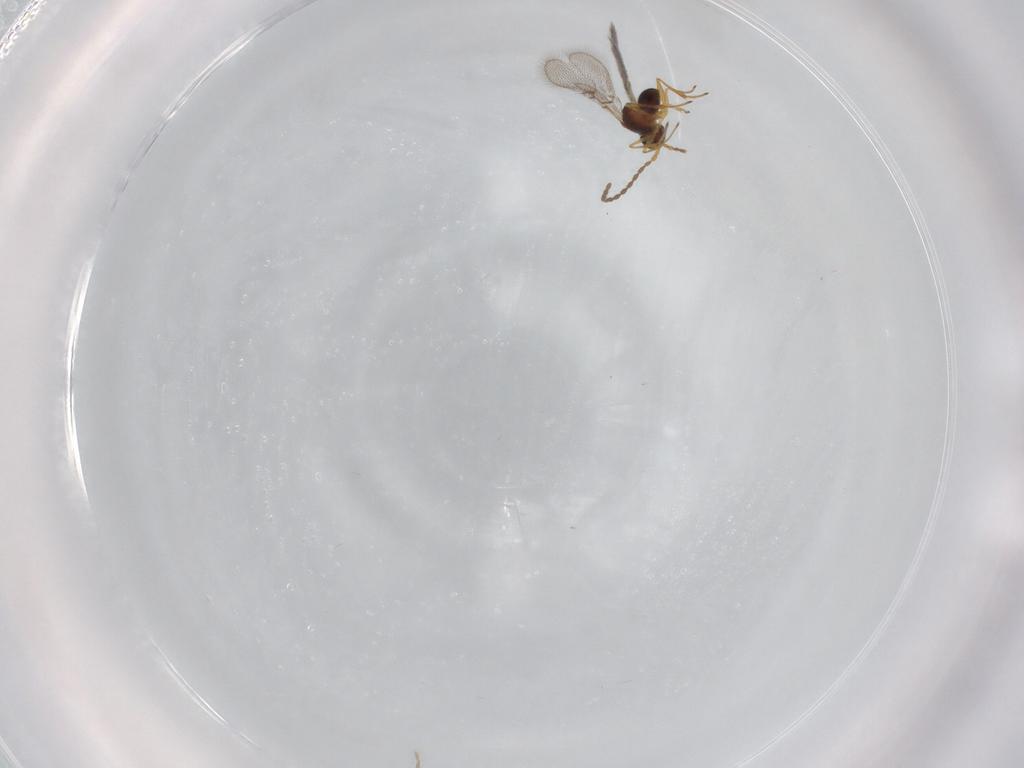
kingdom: Animalia
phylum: Arthropoda
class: Insecta
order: Hymenoptera
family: Figitidae
